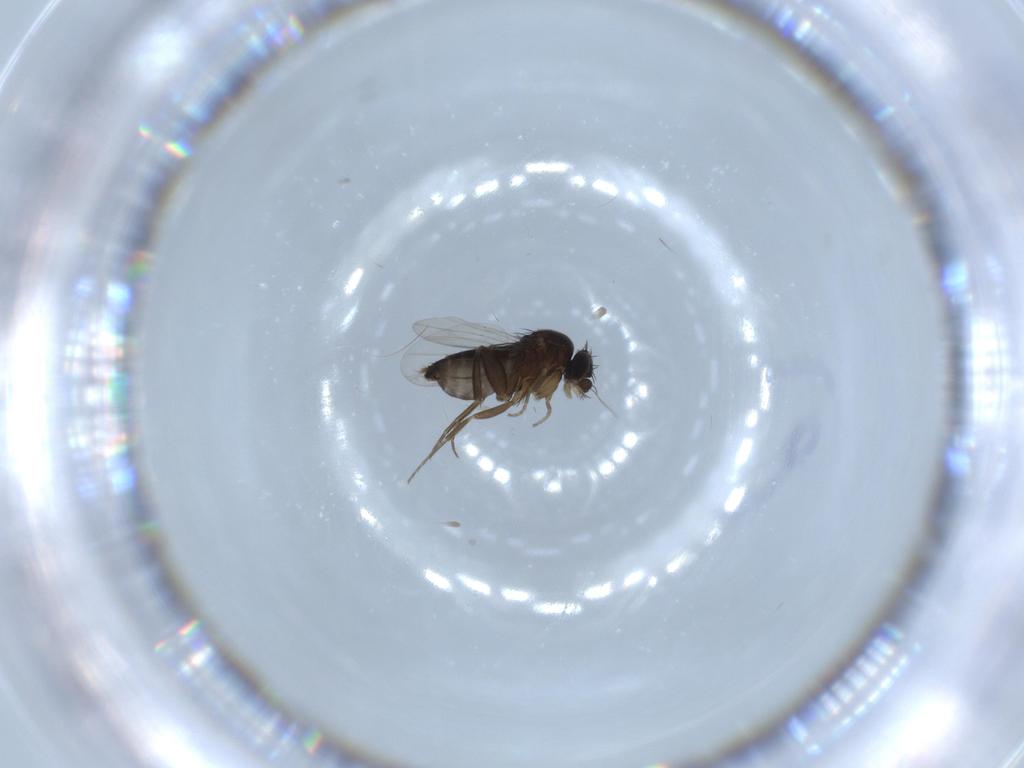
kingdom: Animalia
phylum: Arthropoda
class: Insecta
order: Diptera
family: Phoridae
